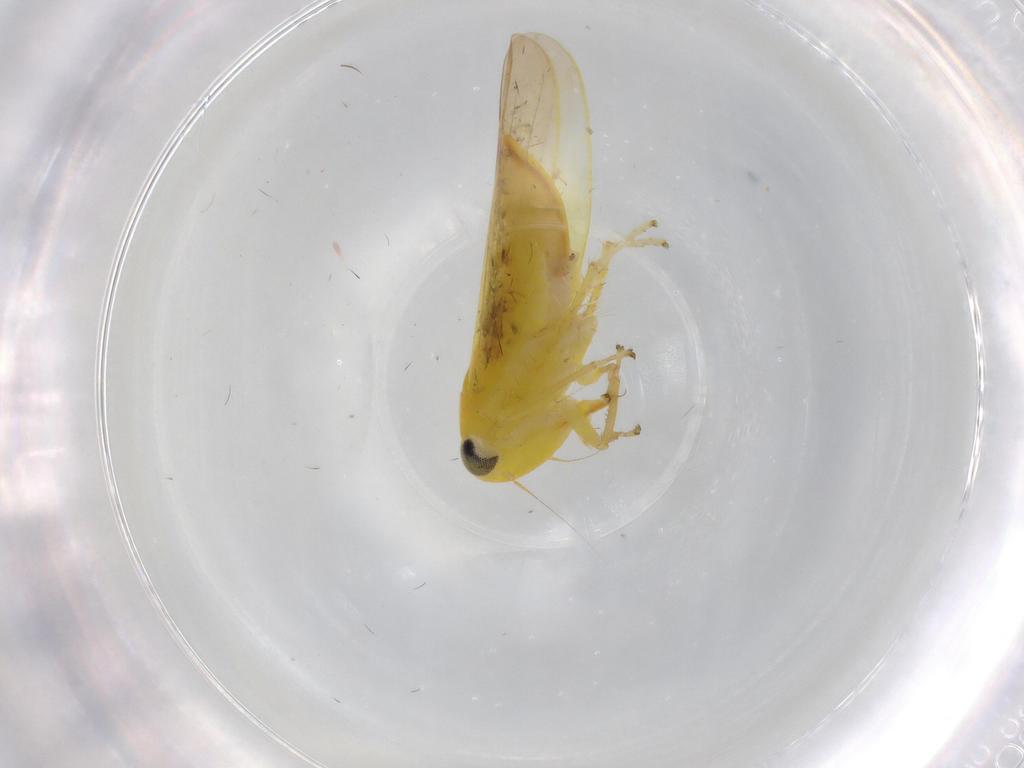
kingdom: Animalia
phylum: Arthropoda
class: Insecta
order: Hemiptera
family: Cicadellidae
